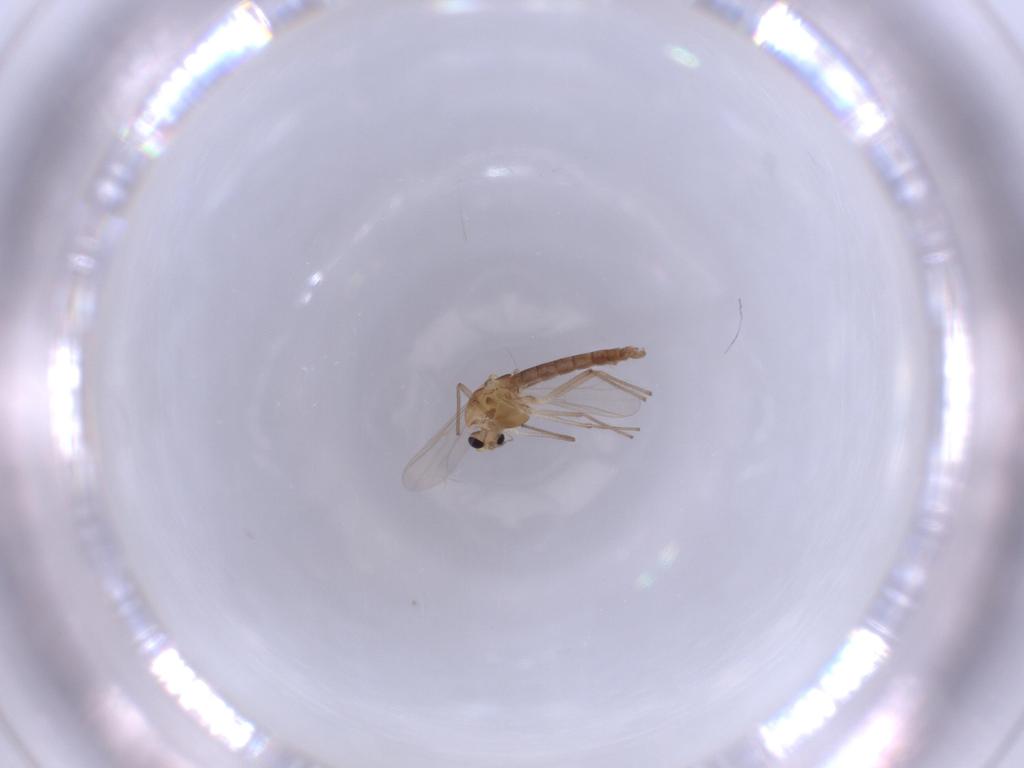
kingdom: Animalia
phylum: Arthropoda
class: Insecta
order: Diptera
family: Chironomidae
